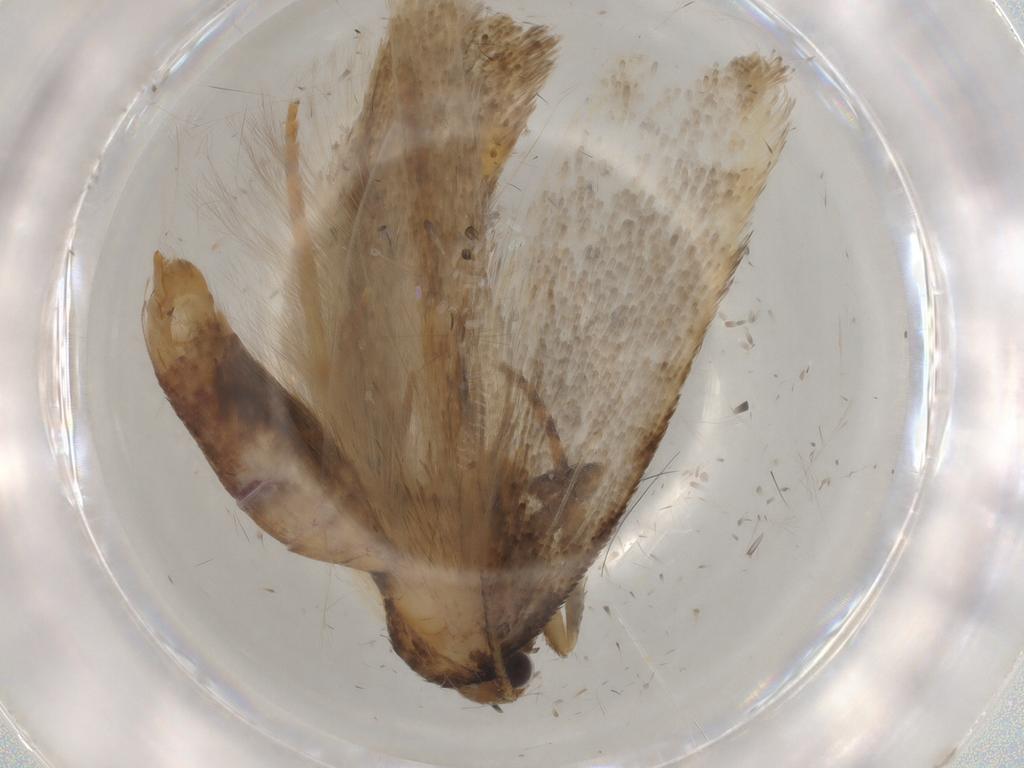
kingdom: Animalia
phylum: Arthropoda
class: Insecta
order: Lepidoptera
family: Gelechiidae
